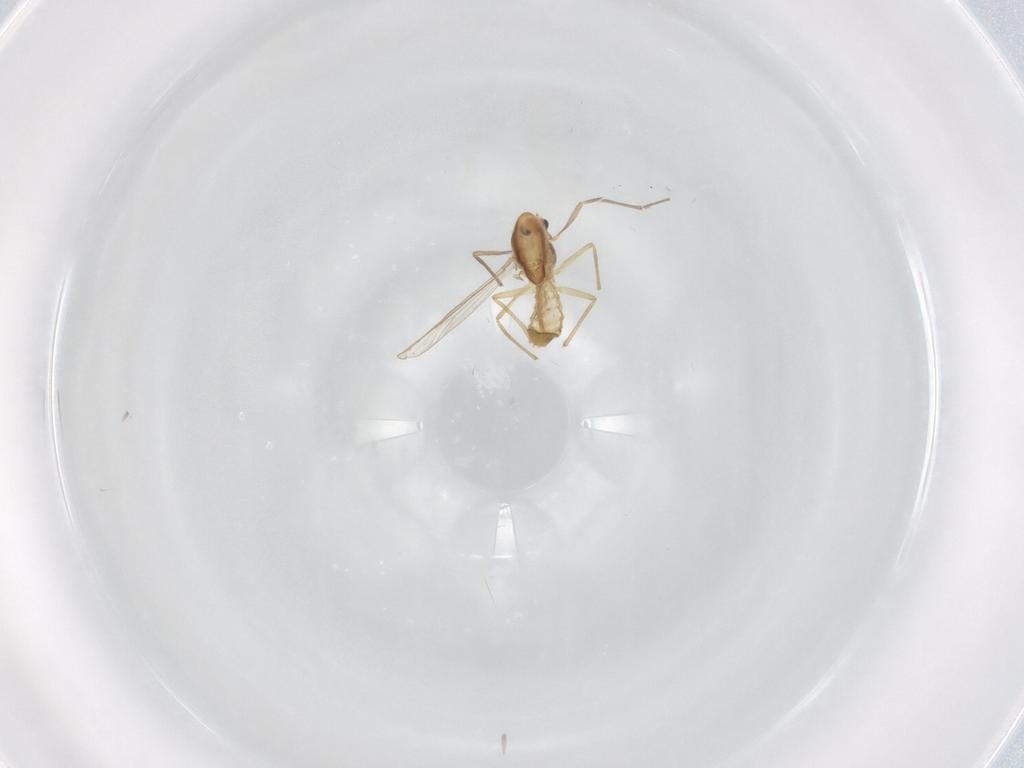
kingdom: Animalia
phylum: Arthropoda
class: Insecta
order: Diptera
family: Chironomidae
